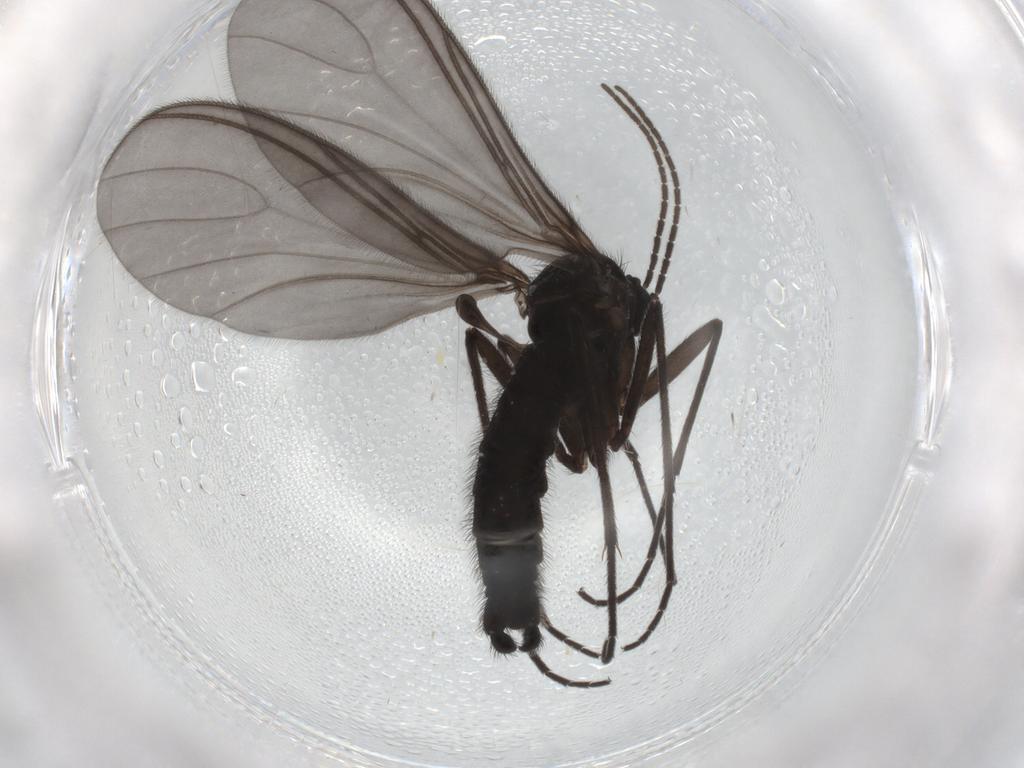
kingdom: Animalia
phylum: Arthropoda
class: Insecta
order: Diptera
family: Sciaridae
